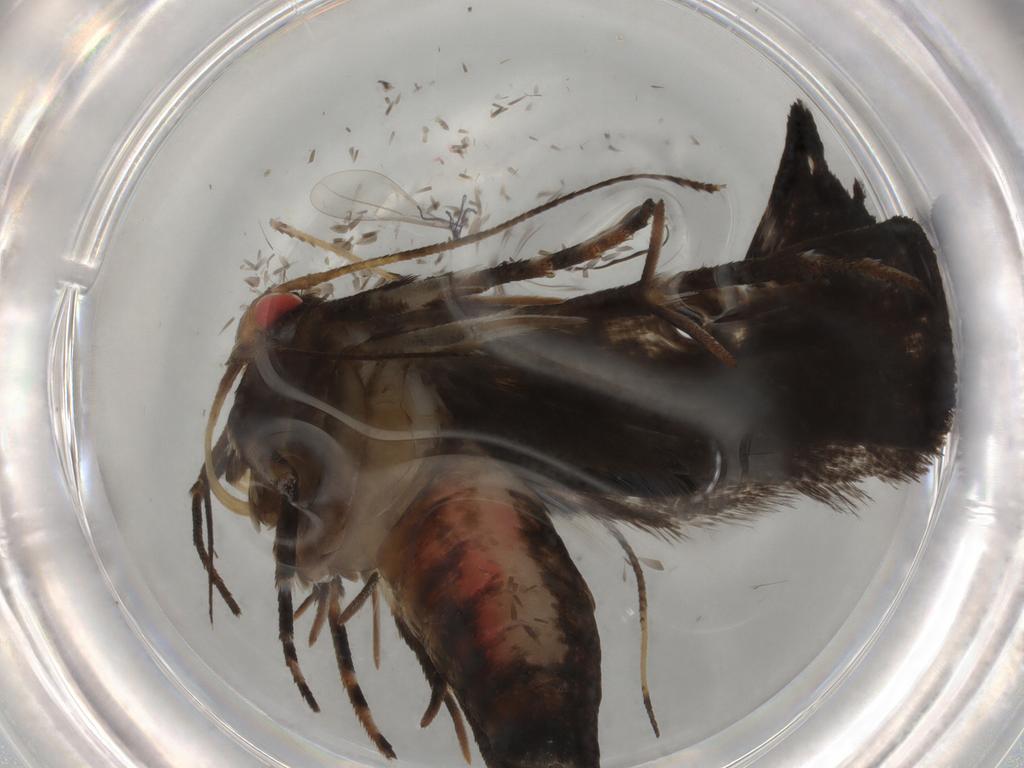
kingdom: Animalia
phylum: Arthropoda
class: Insecta
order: Lepidoptera
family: Gelechiidae
